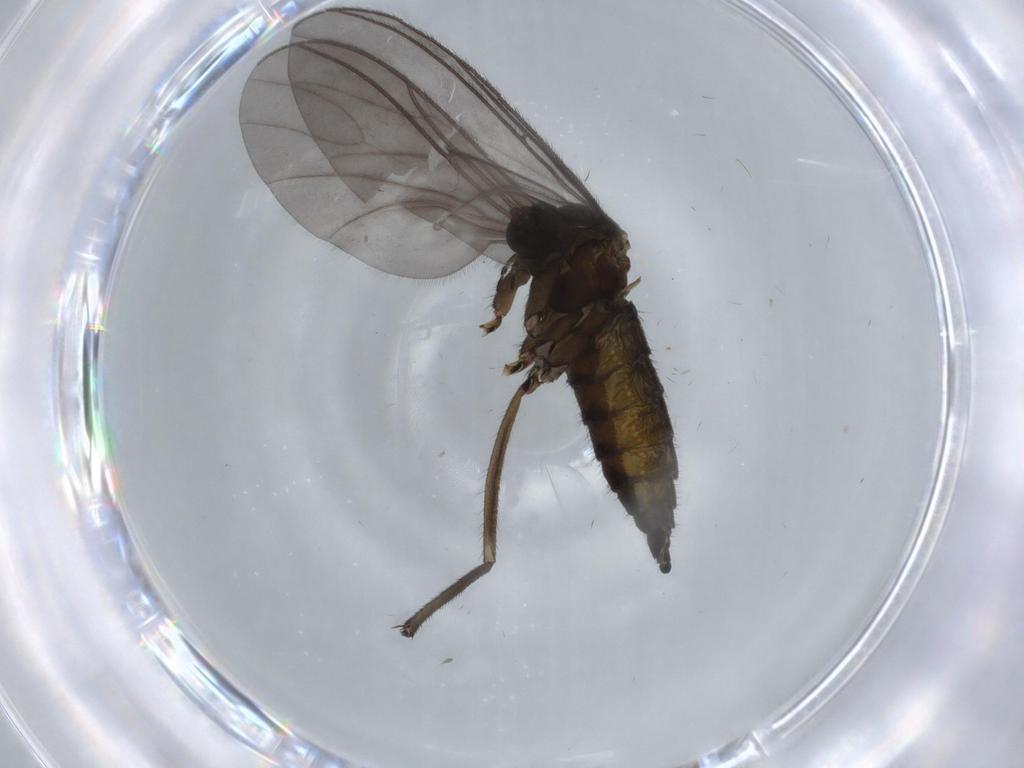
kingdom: Animalia
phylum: Arthropoda
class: Insecta
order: Diptera
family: Sciaridae
